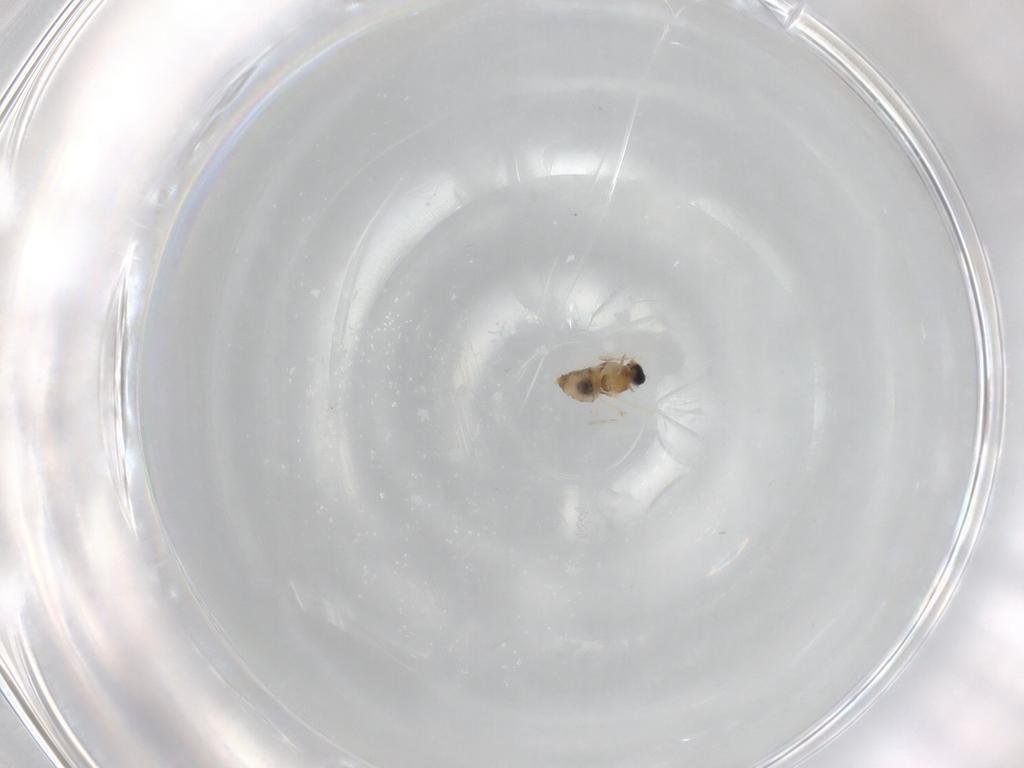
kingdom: Animalia
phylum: Arthropoda
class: Insecta
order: Diptera
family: Chironomidae
